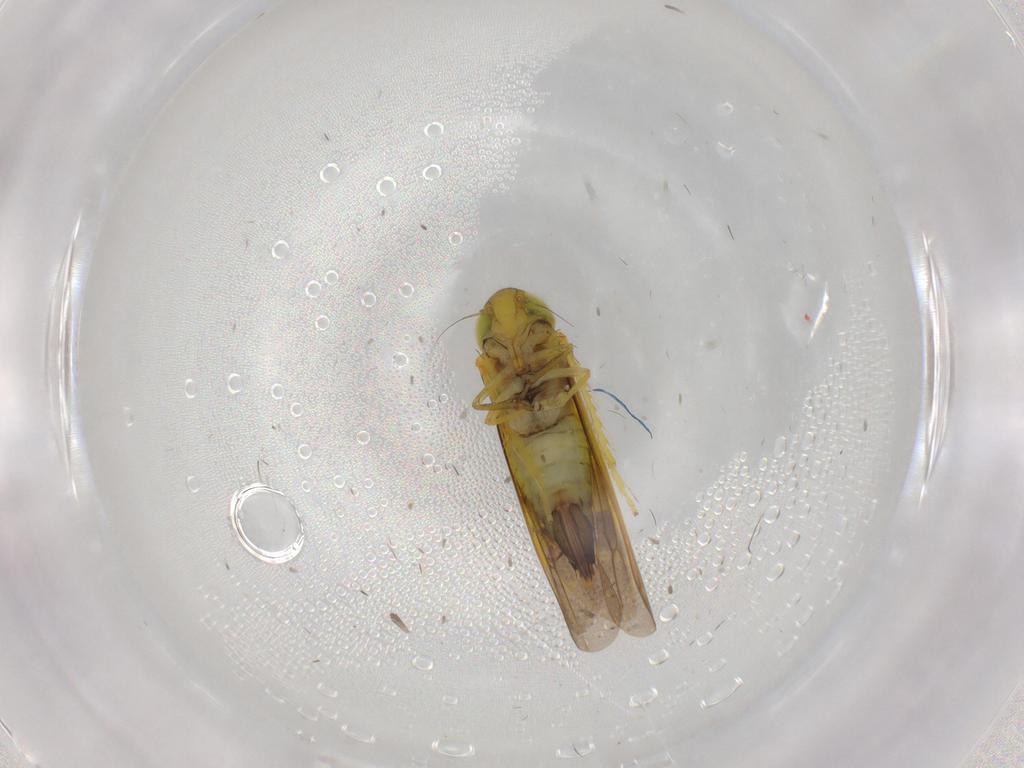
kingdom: Animalia
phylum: Arthropoda
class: Insecta
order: Hemiptera
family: Cicadellidae
